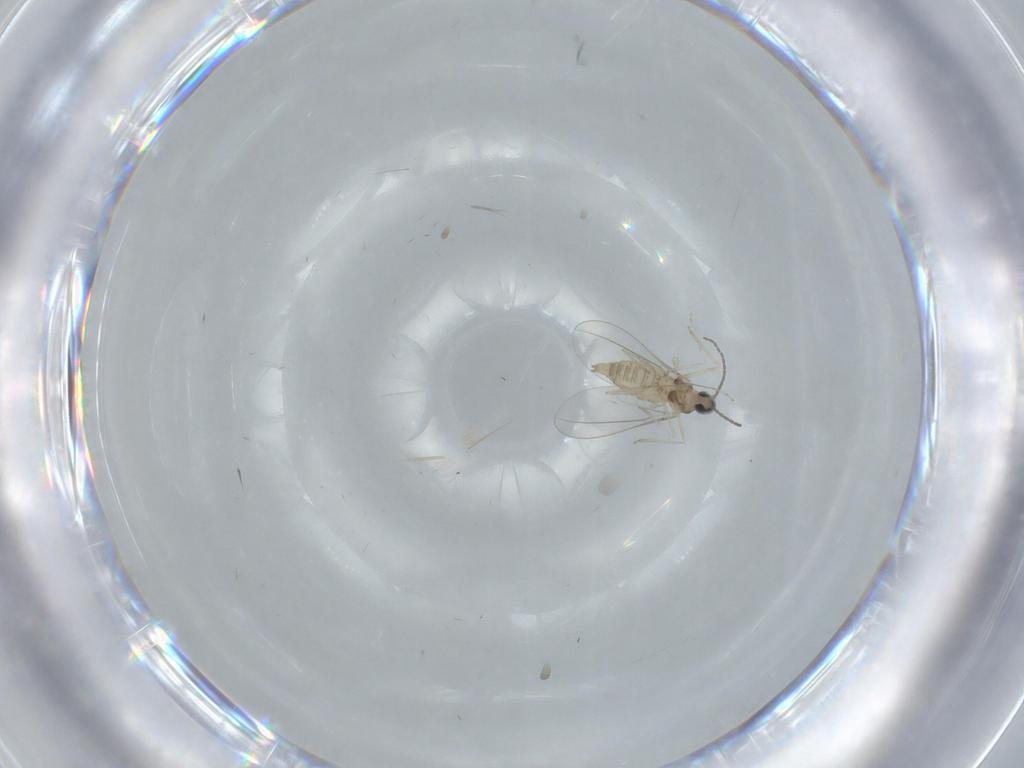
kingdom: Animalia
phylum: Arthropoda
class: Insecta
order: Diptera
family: Cecidomyiidae
